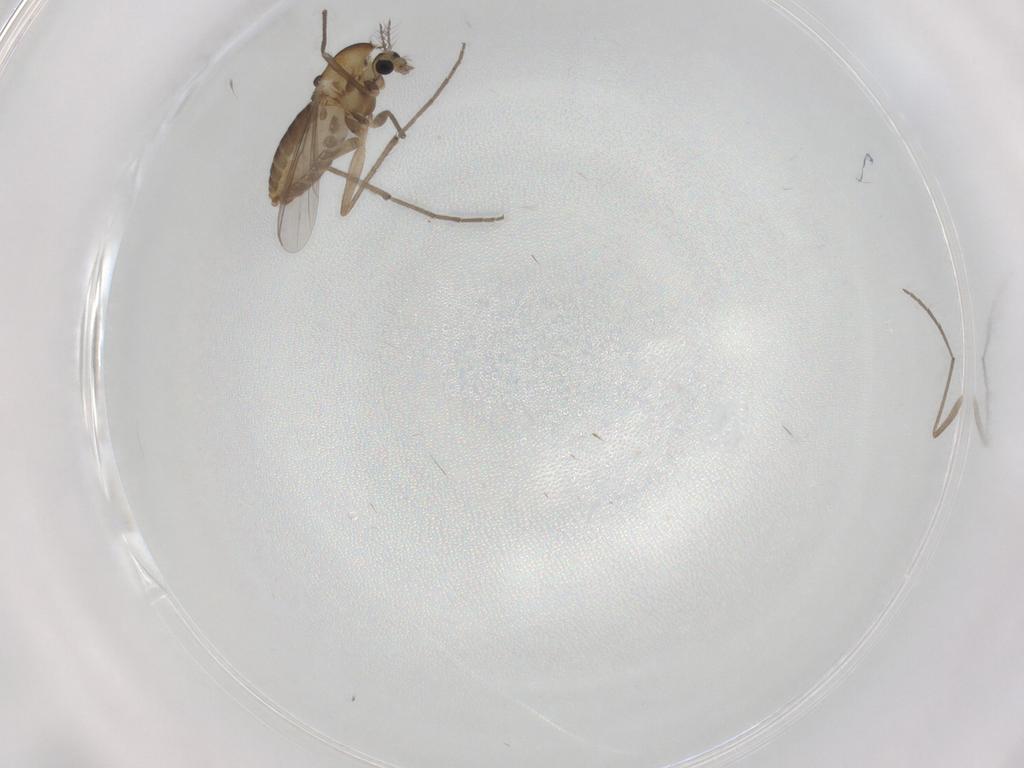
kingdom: Animalia
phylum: Arthropoda
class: Insecta
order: Diptera
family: Chironomidae
